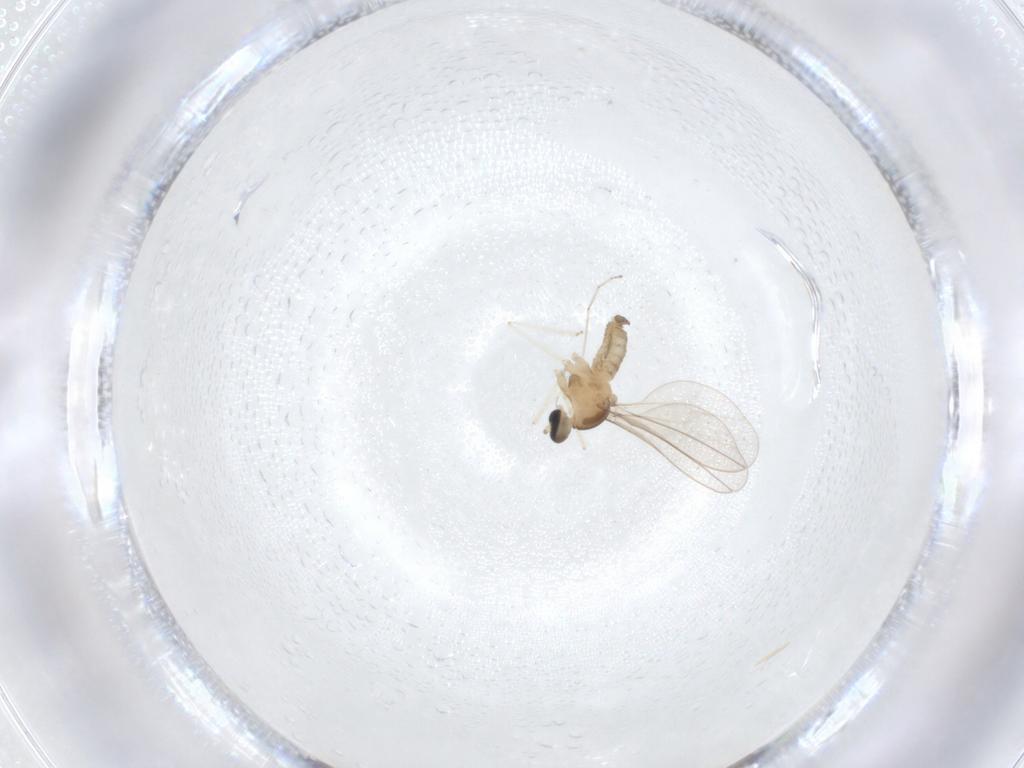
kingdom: Animalia
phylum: Arthropoda
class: Insecta
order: Diptera
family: Cecidomyiidae
